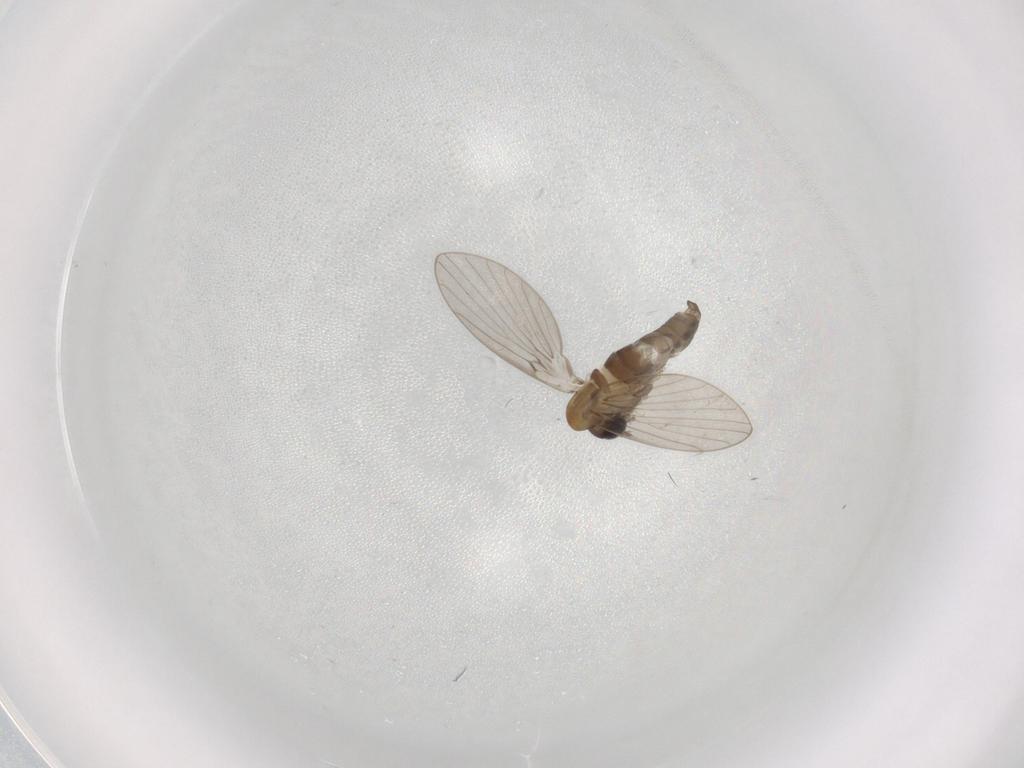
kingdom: Animalia
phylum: Arthropoda
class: Insecta
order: Diptera
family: Psychodidae
